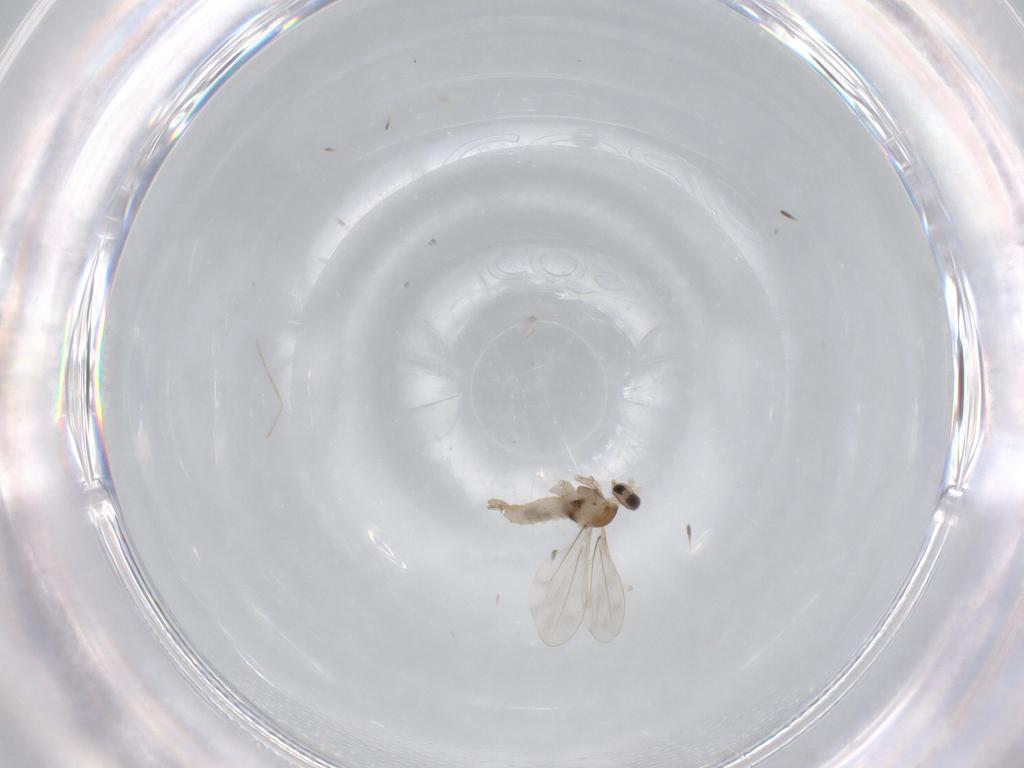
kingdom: Animalia
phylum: Arthropoda
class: Insecta
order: Diptera
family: Cecidomyiidae
